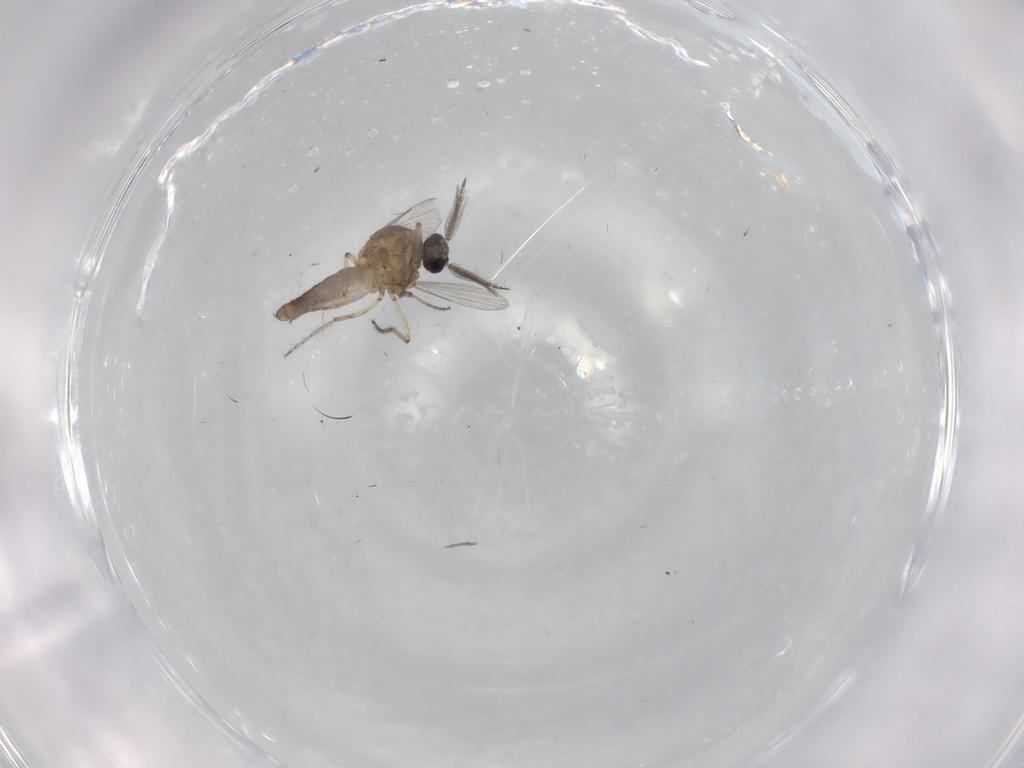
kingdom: Animalia
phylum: Arthropoda
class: Insecta
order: Diptera
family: Ceratopogonidae
